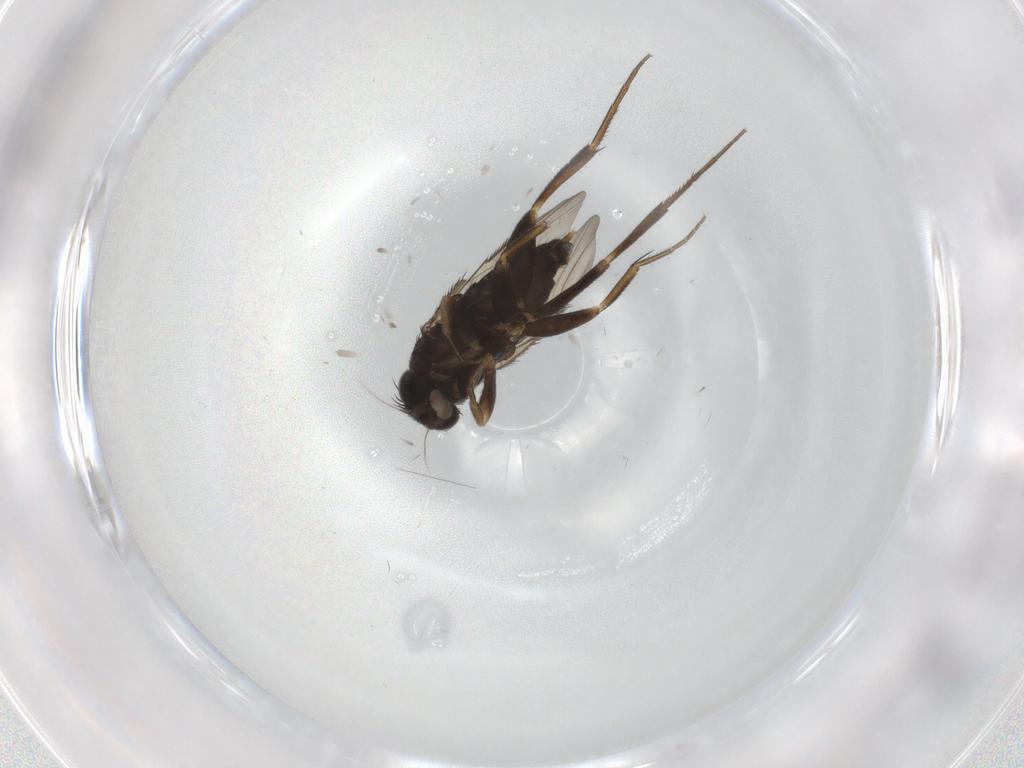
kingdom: Animalia
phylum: Arthropoda
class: Insecta
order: Diptera
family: Phoridae
